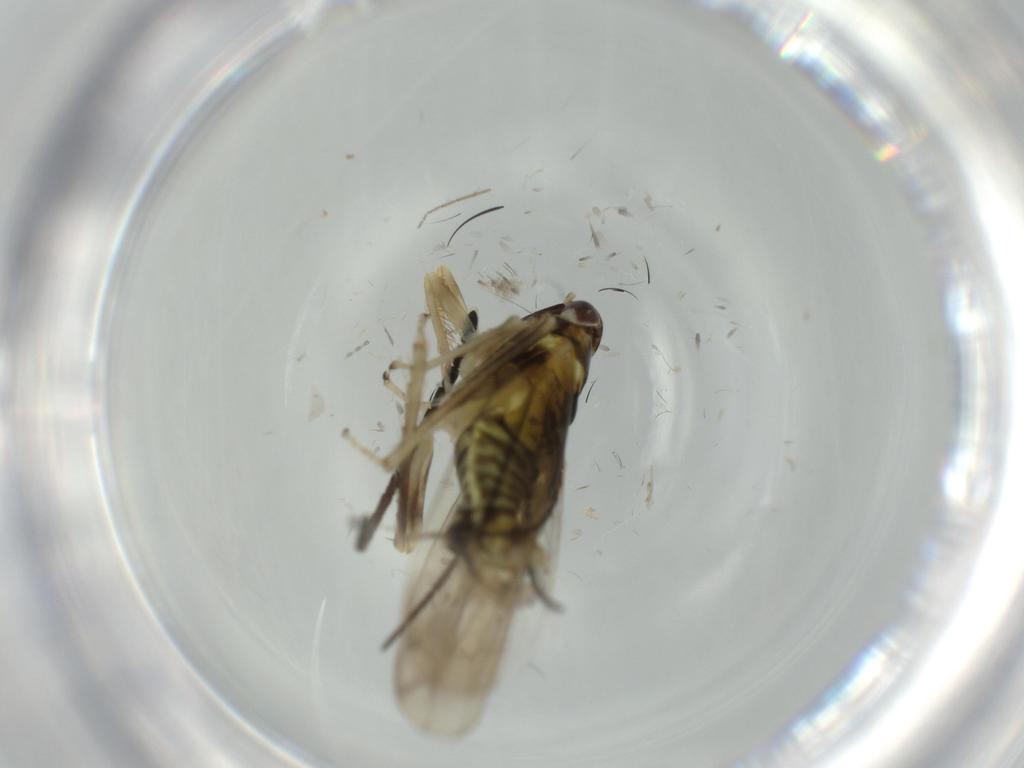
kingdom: Animalia
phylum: Arthropoda
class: Insecta
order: Hemiptera
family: Cicadellidae
